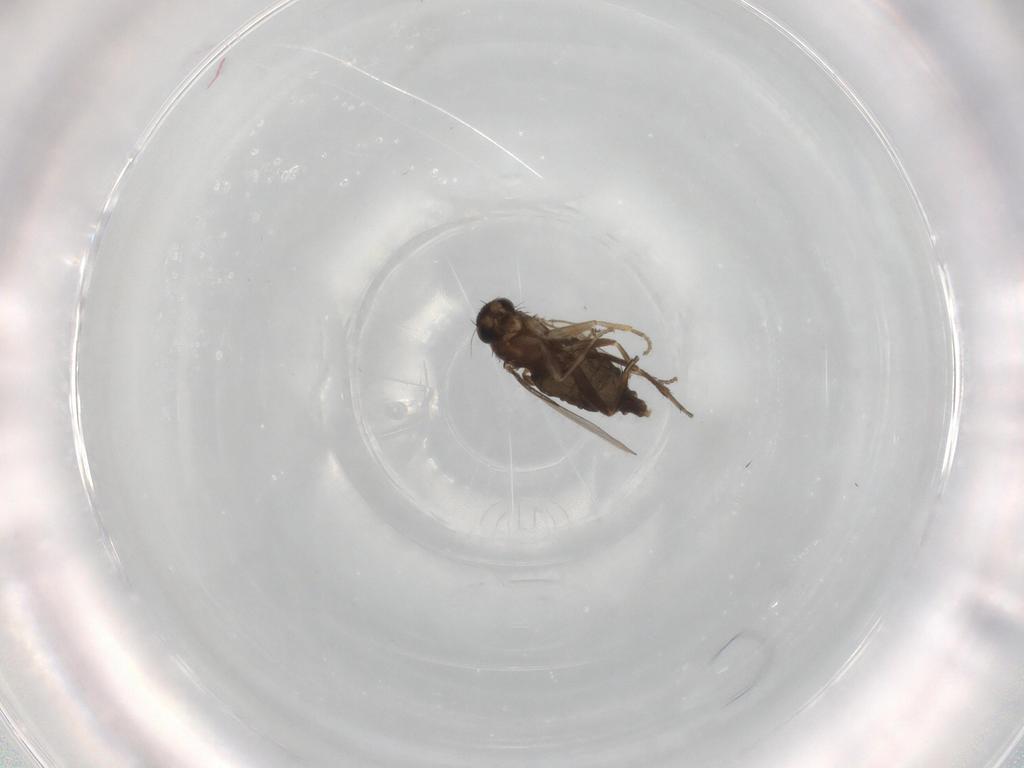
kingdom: Animalia
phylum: Arthropoda
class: Insecta
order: Diptera
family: Phoridae
